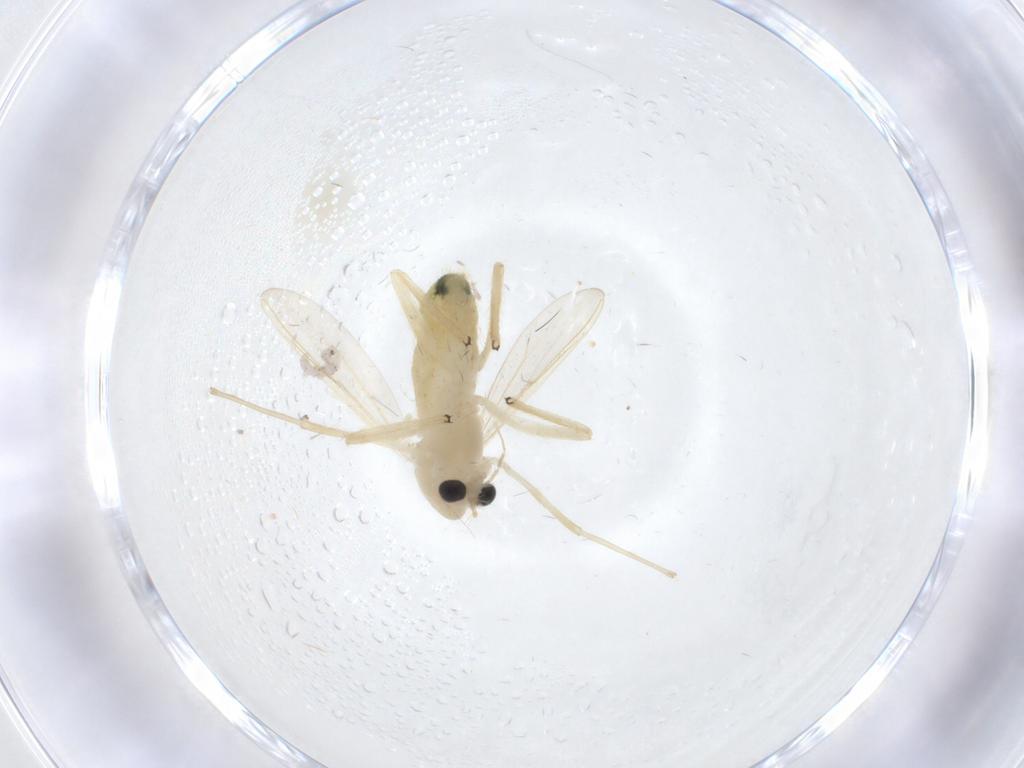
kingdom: Animalia
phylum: Arthropoda
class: Insecta
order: Diptera
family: Chironomidae
